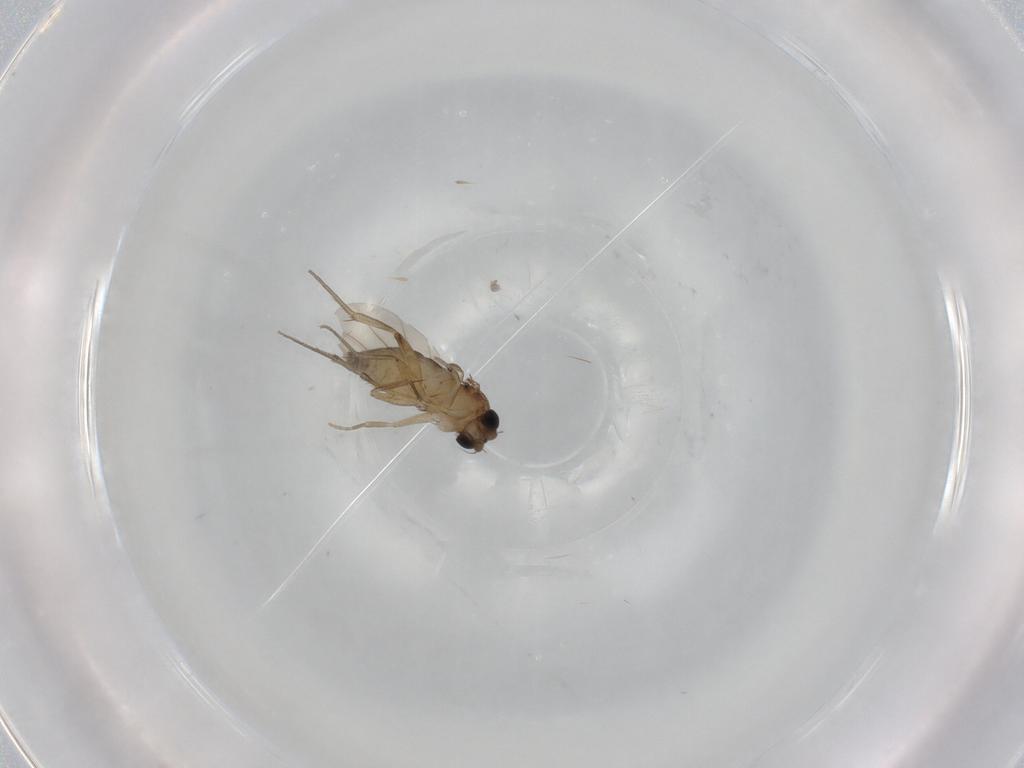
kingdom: Animalia
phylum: Arthropoda
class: Insecta
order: Diptera
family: Phoridae
